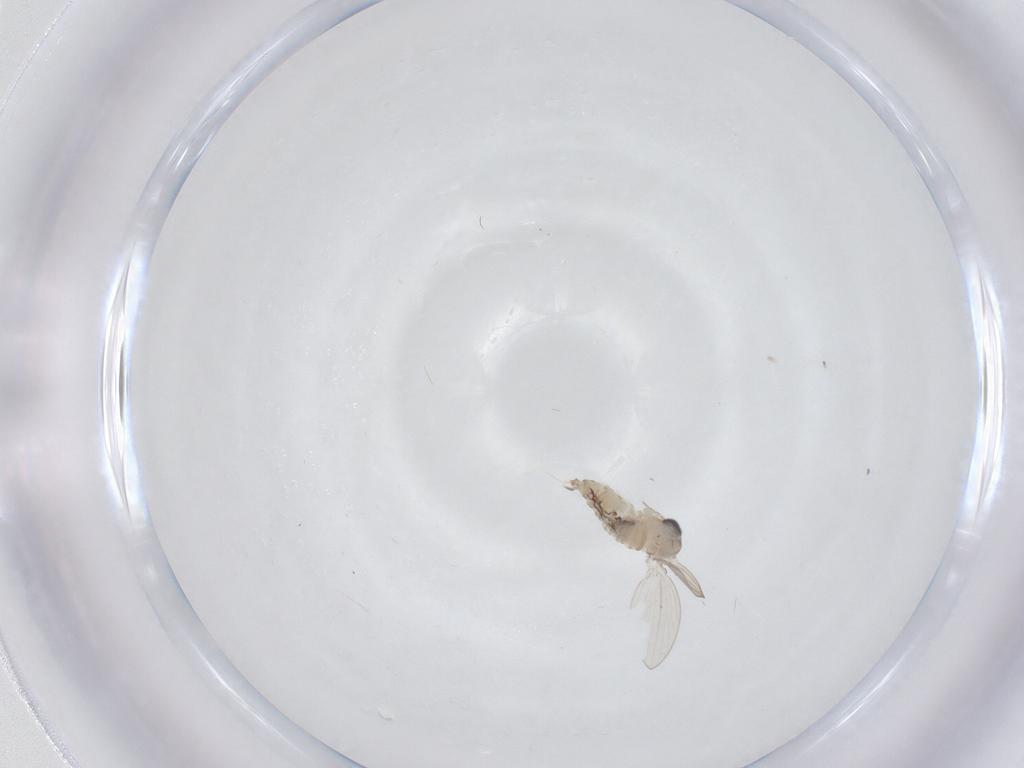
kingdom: Animalia
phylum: Arthropoda
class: Insecta
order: Diptera
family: Psychodidae
